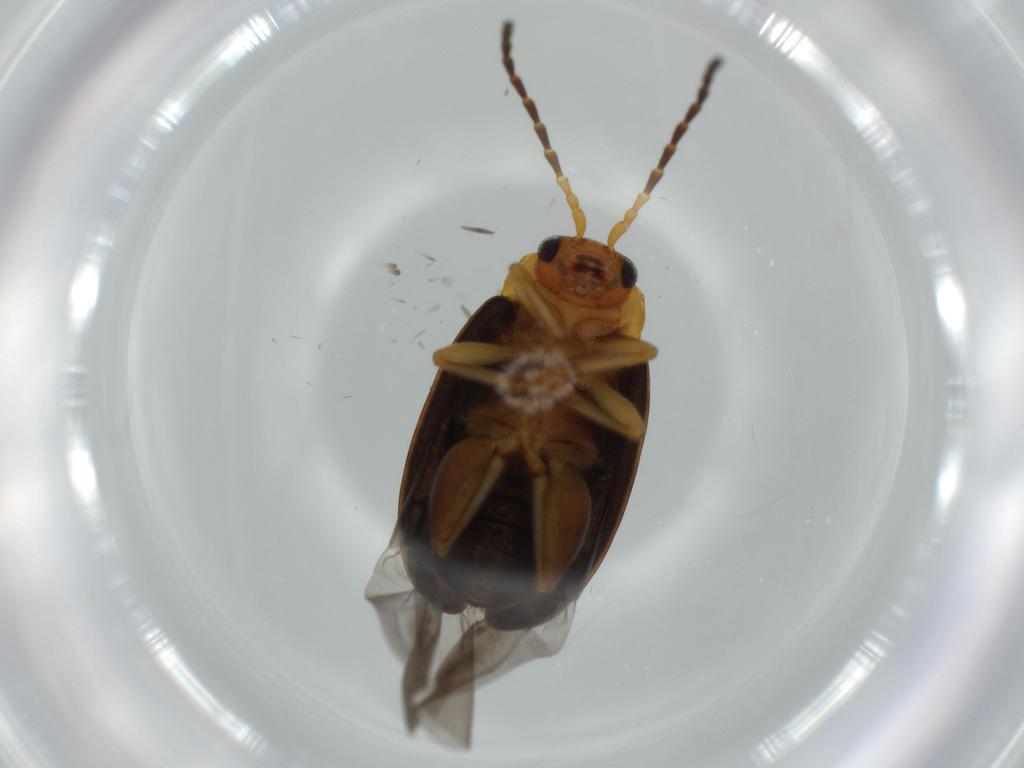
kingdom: Animalia
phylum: Arthropoda
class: Insecta
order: Coleoptera
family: Chrysomelidae
